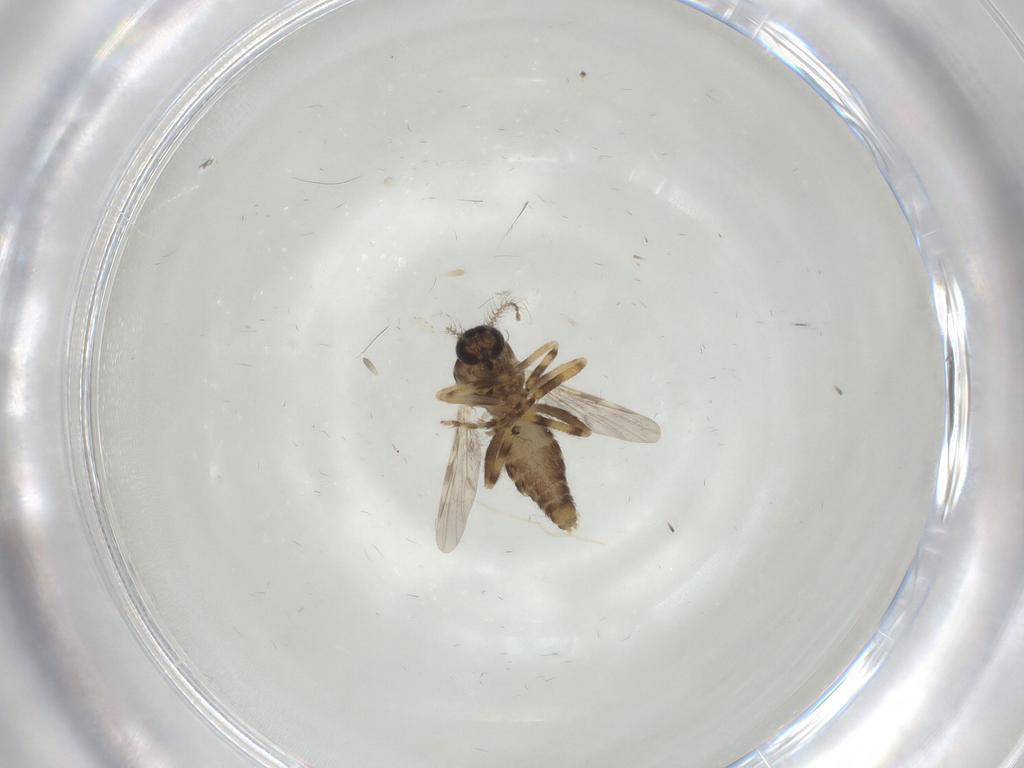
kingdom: Animalia
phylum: Arthropoda
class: Insecta
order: Diptera
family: Ceratopogonidae
